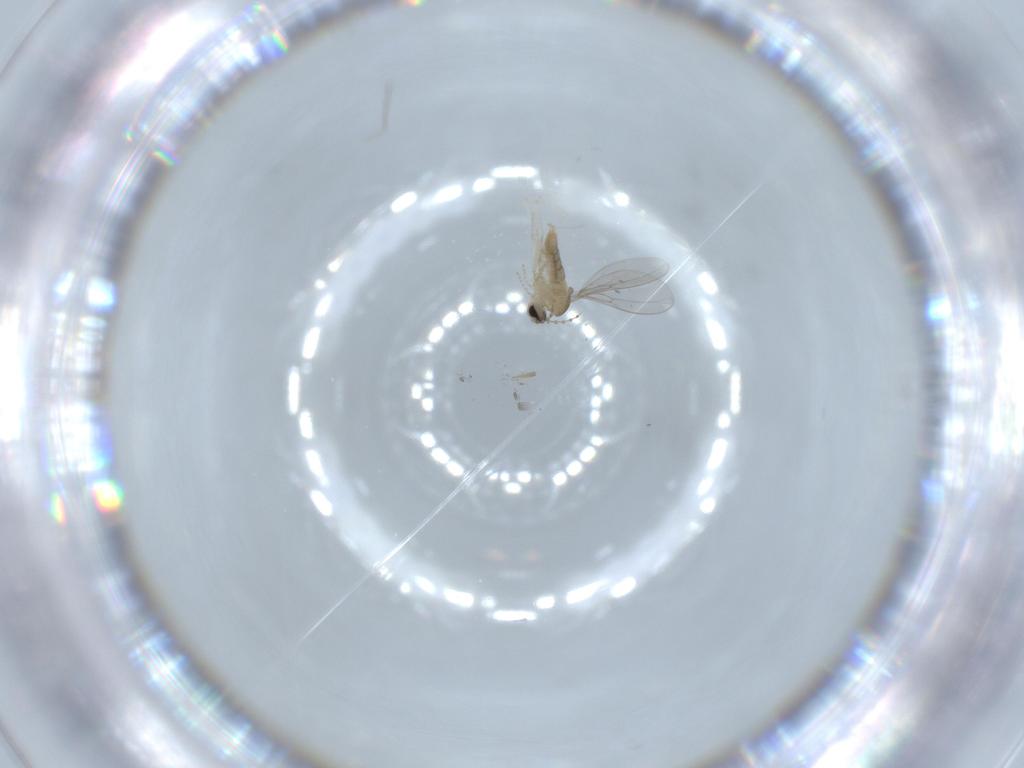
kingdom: Animalia
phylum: Arthropoda
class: Insecta
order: Diptera
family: Cecidomyiidae
